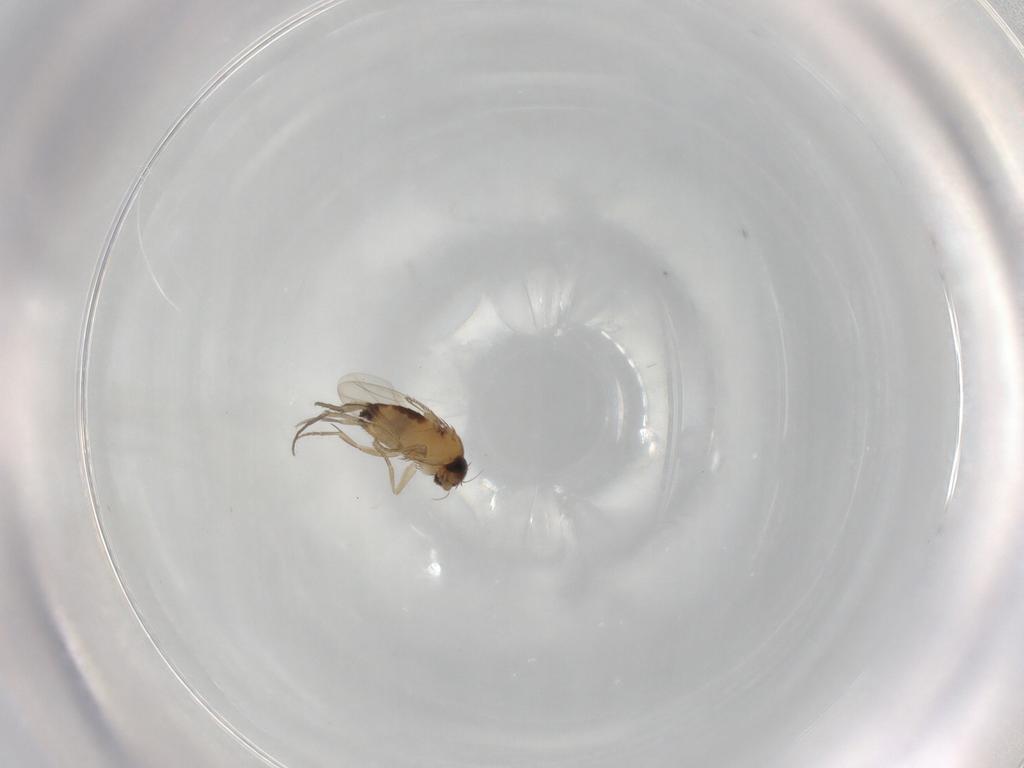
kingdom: Animalia
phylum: Arthropoda
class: Insecta
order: Diptera
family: Phoridae
